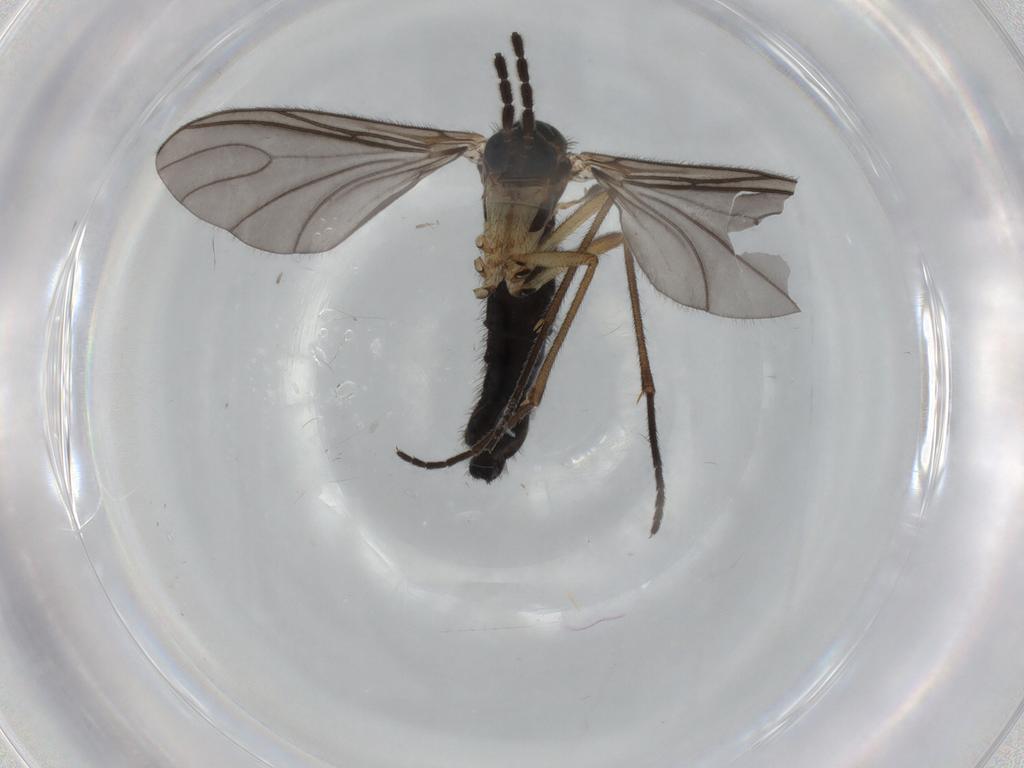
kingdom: Animalia
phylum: Arthropoda
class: Insecta
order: Diptera
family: Sciaridae
